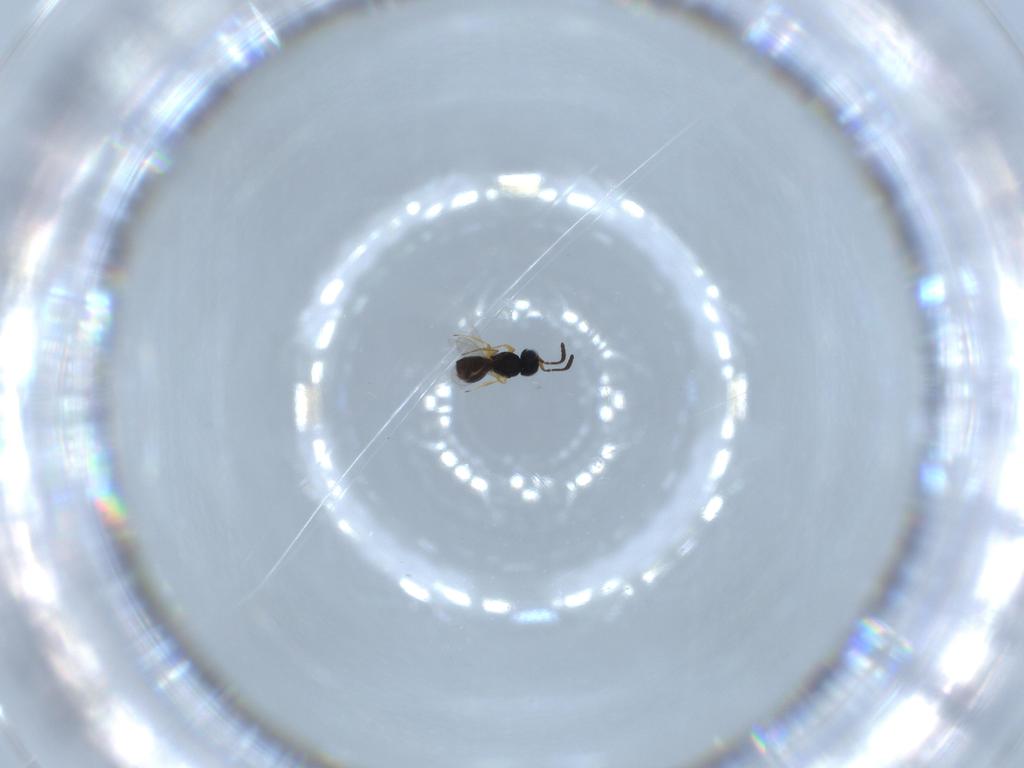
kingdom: Animalia
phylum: Arthropoda
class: Insecta
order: Hymenoptera
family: Scelionidae
